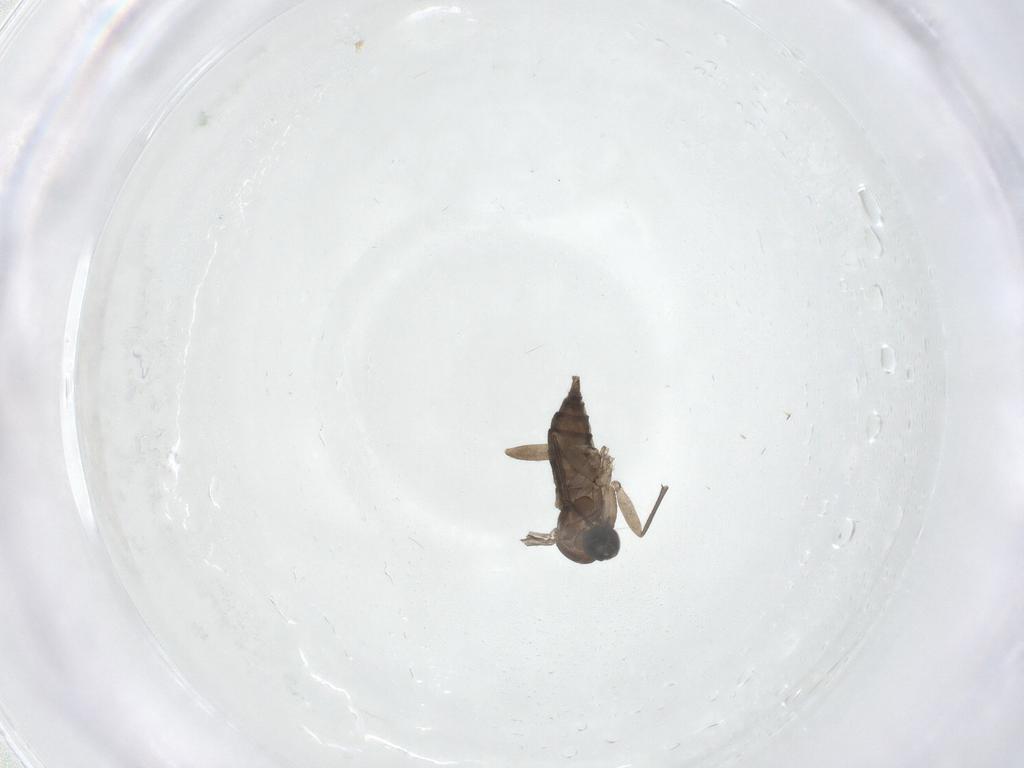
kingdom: Animalia
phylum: Arthropoda
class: Insecta
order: Diptera
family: Sciaridae
